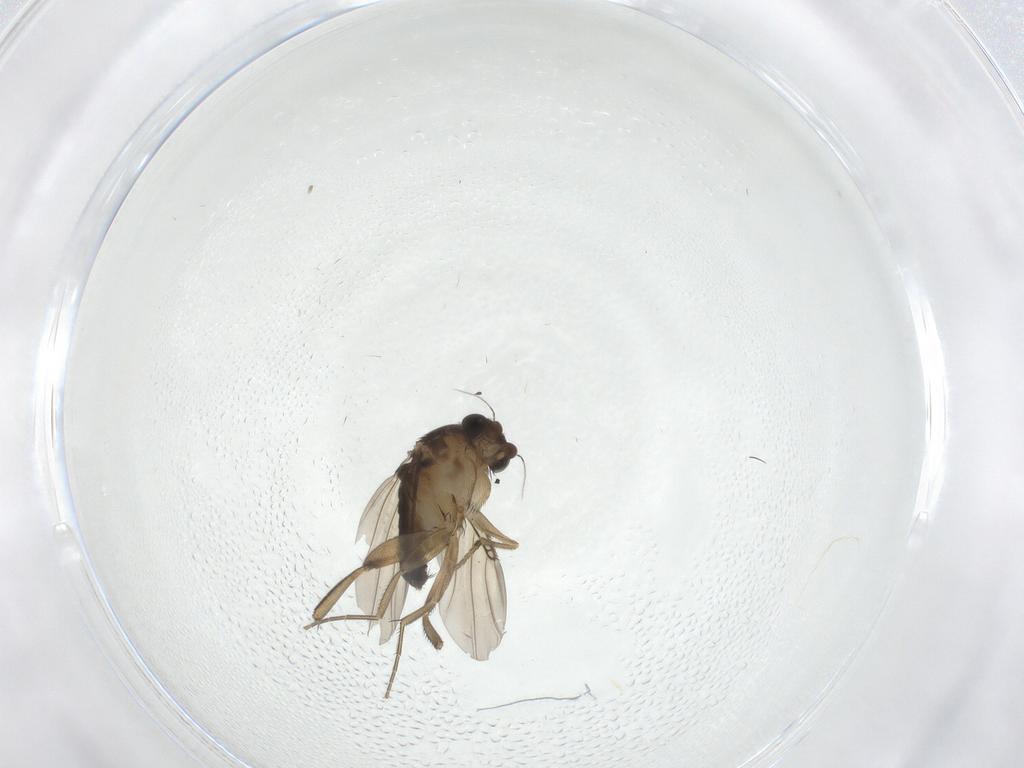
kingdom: Animalia
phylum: Arthropoda
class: Insecta
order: Diptera
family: Phoridae
